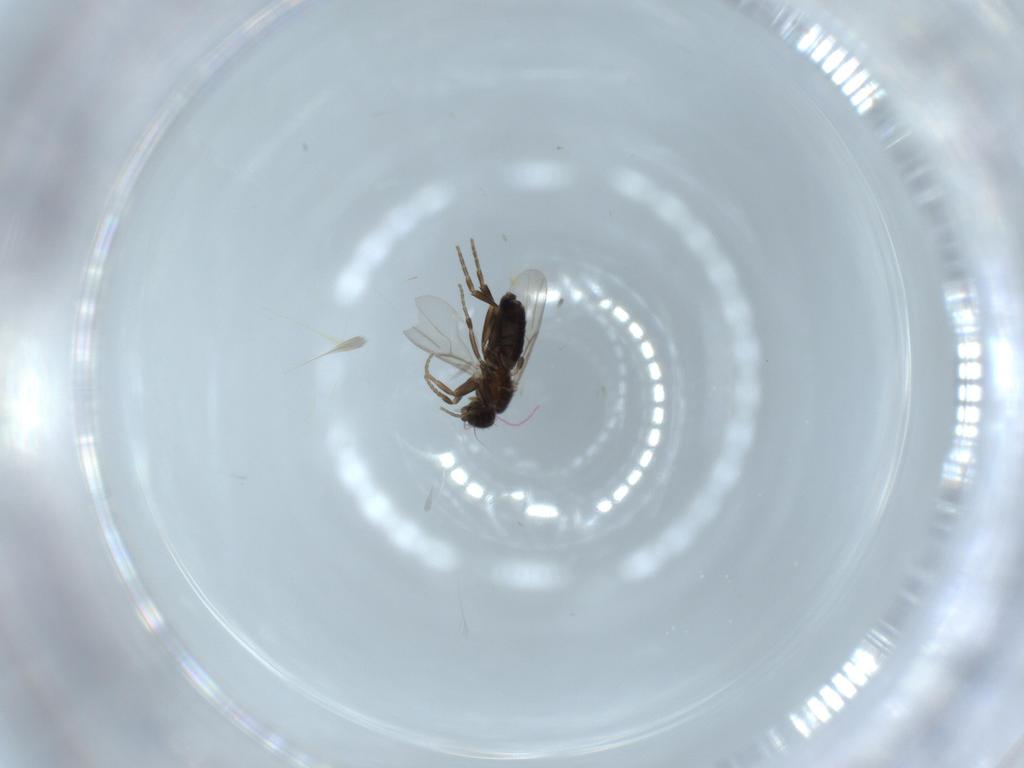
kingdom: Animalia
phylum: Arthropoda
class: Insecta
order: Diptera
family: Phoridae
